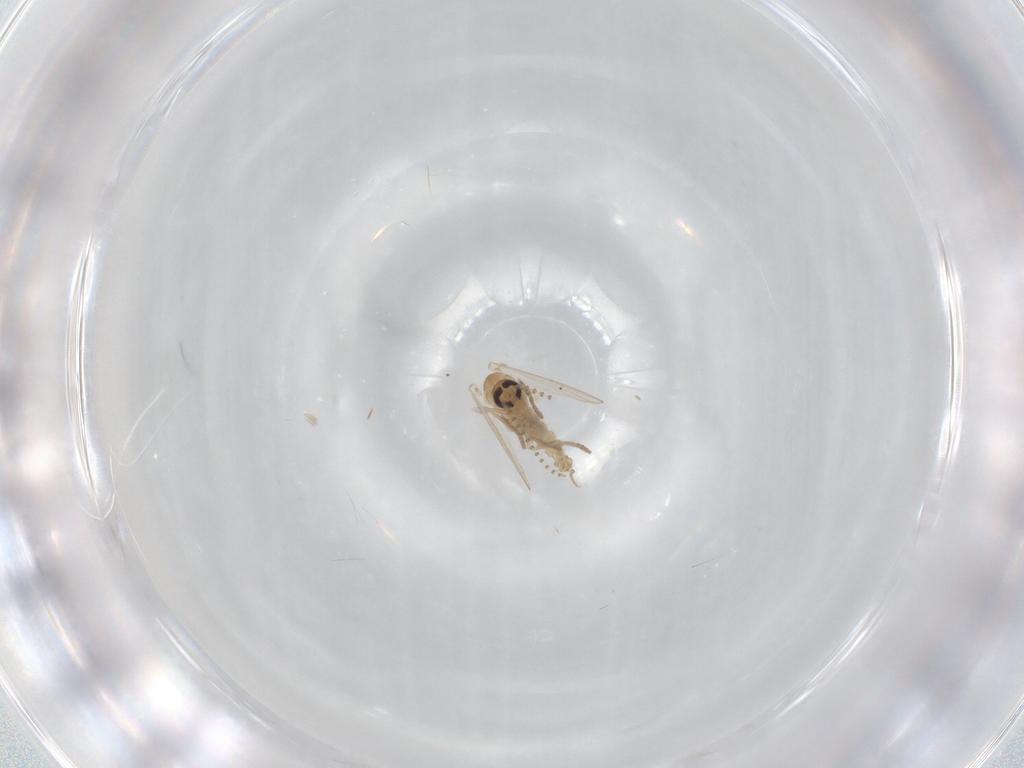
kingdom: Animalia
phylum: Arthropoda
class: Insecta
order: Diptera
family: Psychodidae
